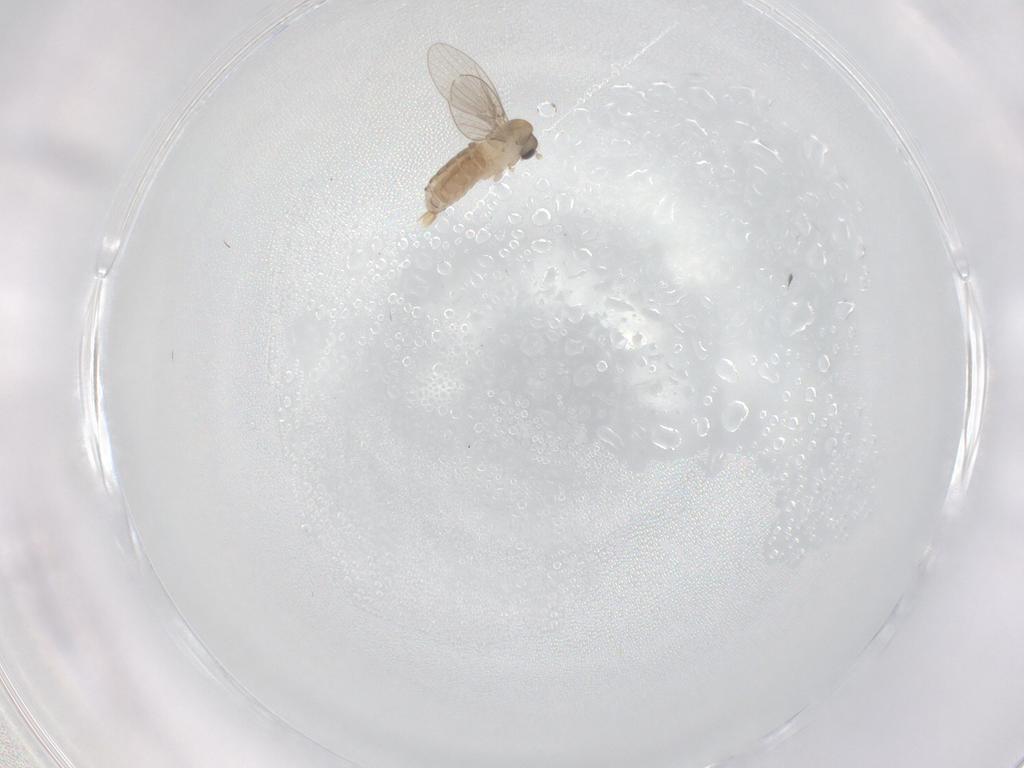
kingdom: Animalia
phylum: Arthropoda
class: Insecta
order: Diptera
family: Psychodidae
